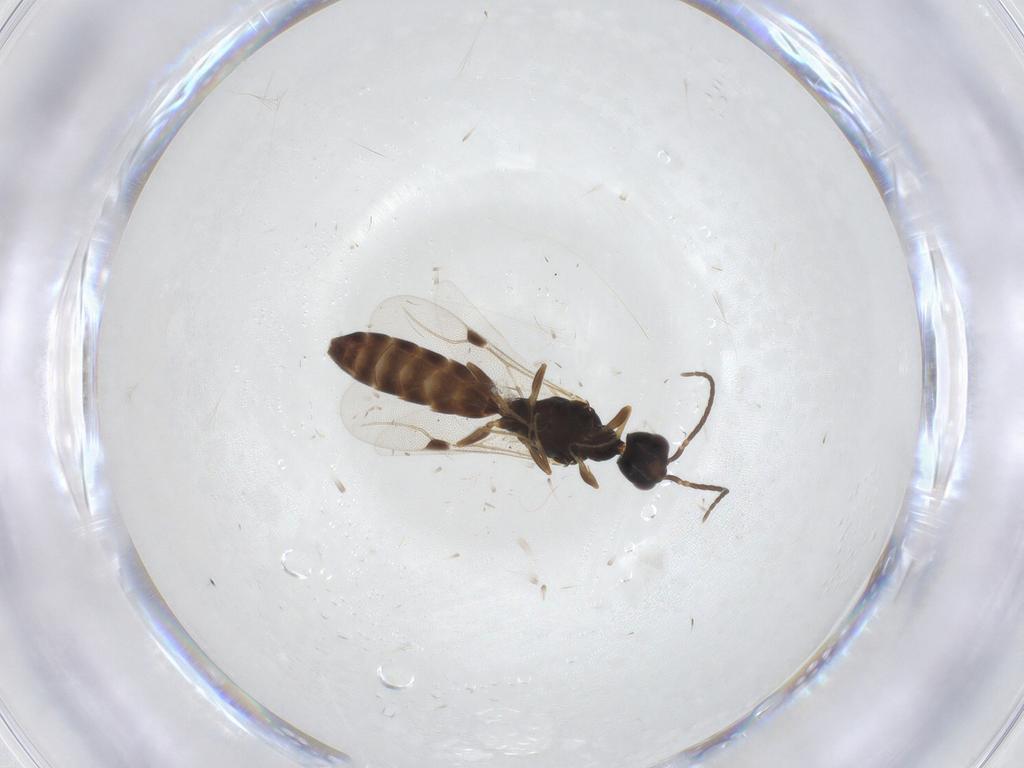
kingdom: Animalia
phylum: Arthropoda
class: Insecta
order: Hymenoptera
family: Bethylidae
